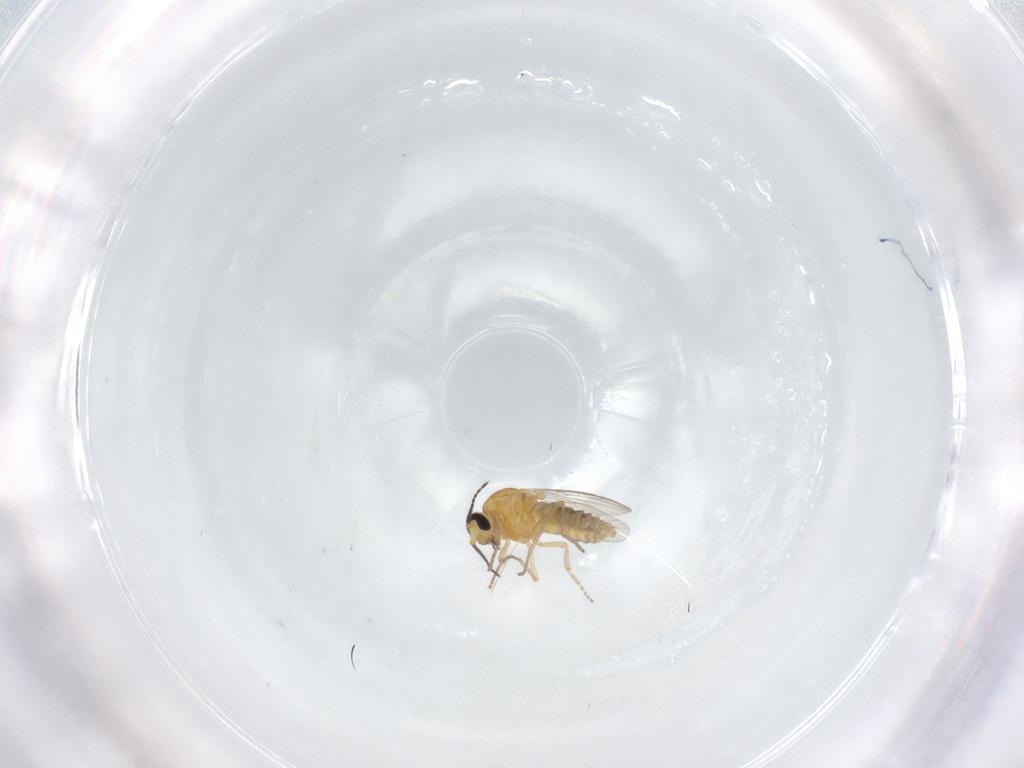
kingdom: Animalia
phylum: Arthropoda
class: Insecta
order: Diptera
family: Ceratopogonidae
